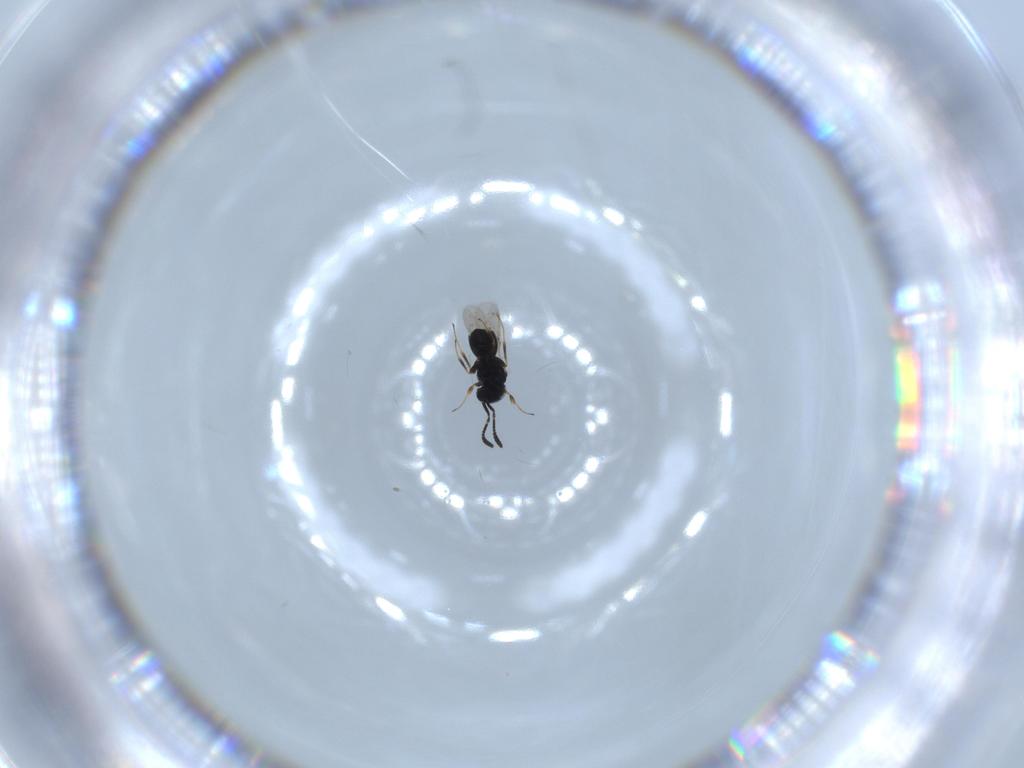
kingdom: Animalia
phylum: Arthropoda
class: Insecta
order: Hymenoptera
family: Scelionidae
